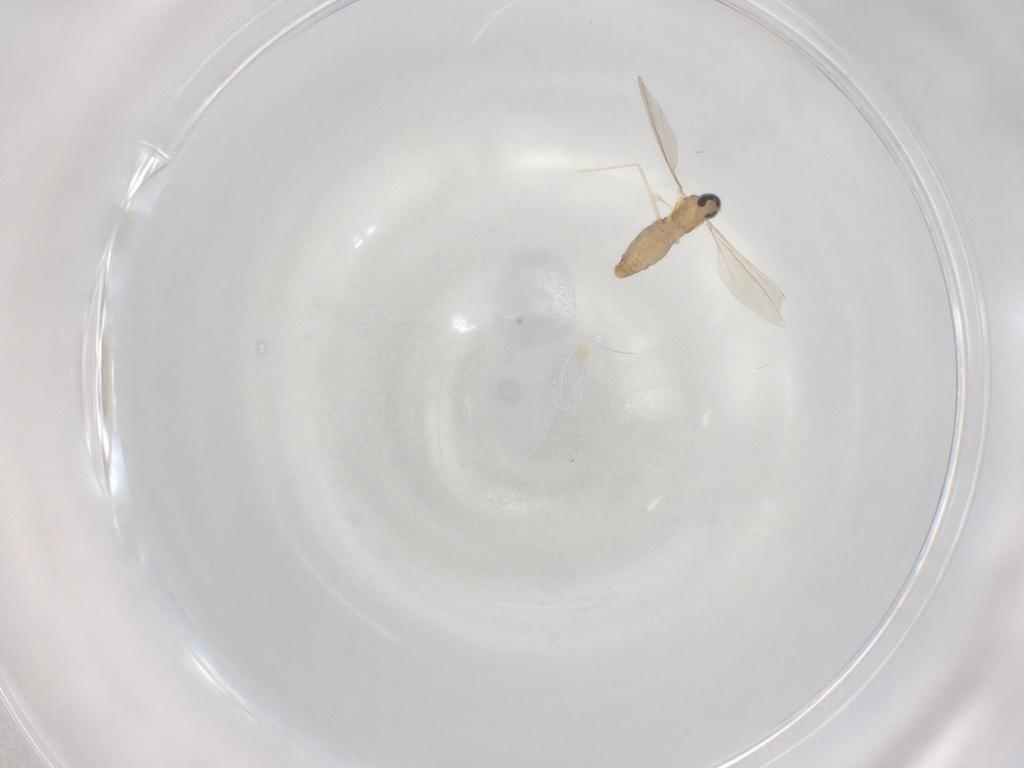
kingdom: Animalia
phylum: Arthropoda
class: Insecta
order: Diptera
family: Cecidomyiidae
